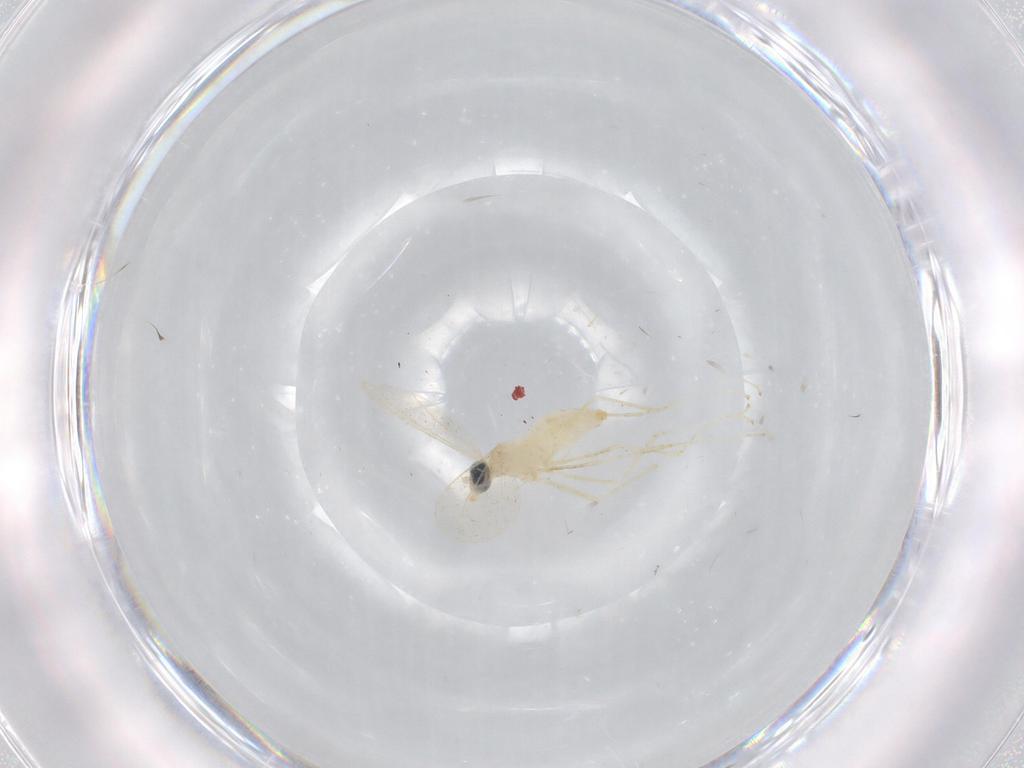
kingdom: Animalia
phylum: Arthropoda
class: Insecta
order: Diptera
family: Cecidomyiidae
